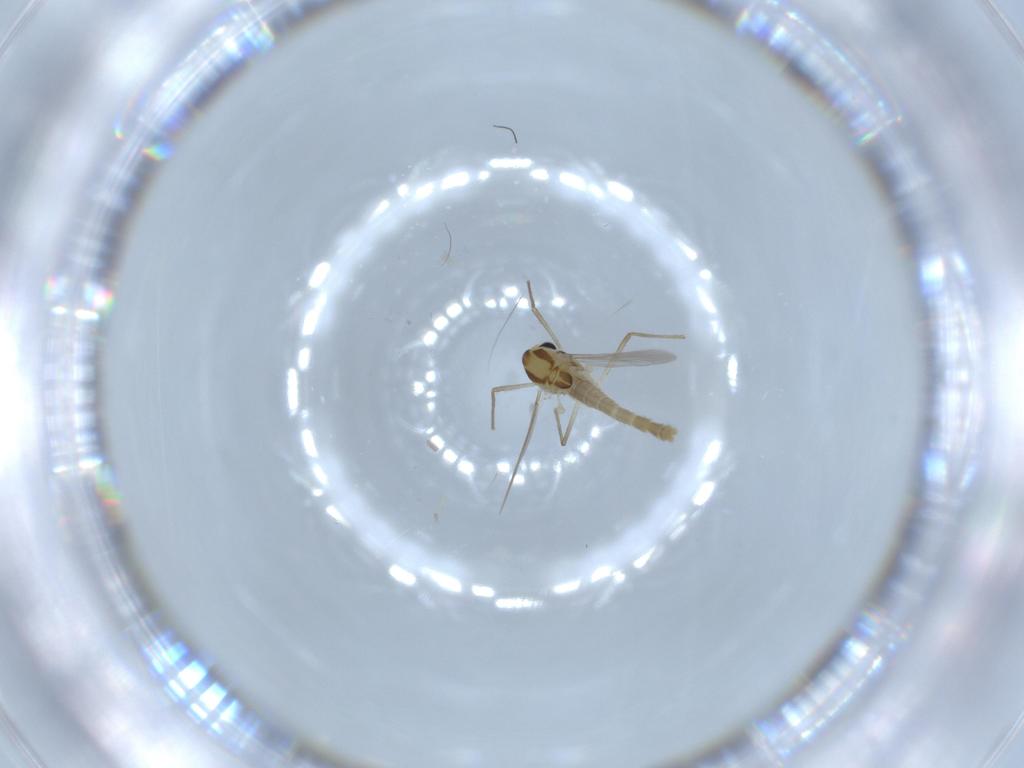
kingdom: Animalia
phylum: Arthropoda
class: Insecta
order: Diptera
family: Sciaridae
